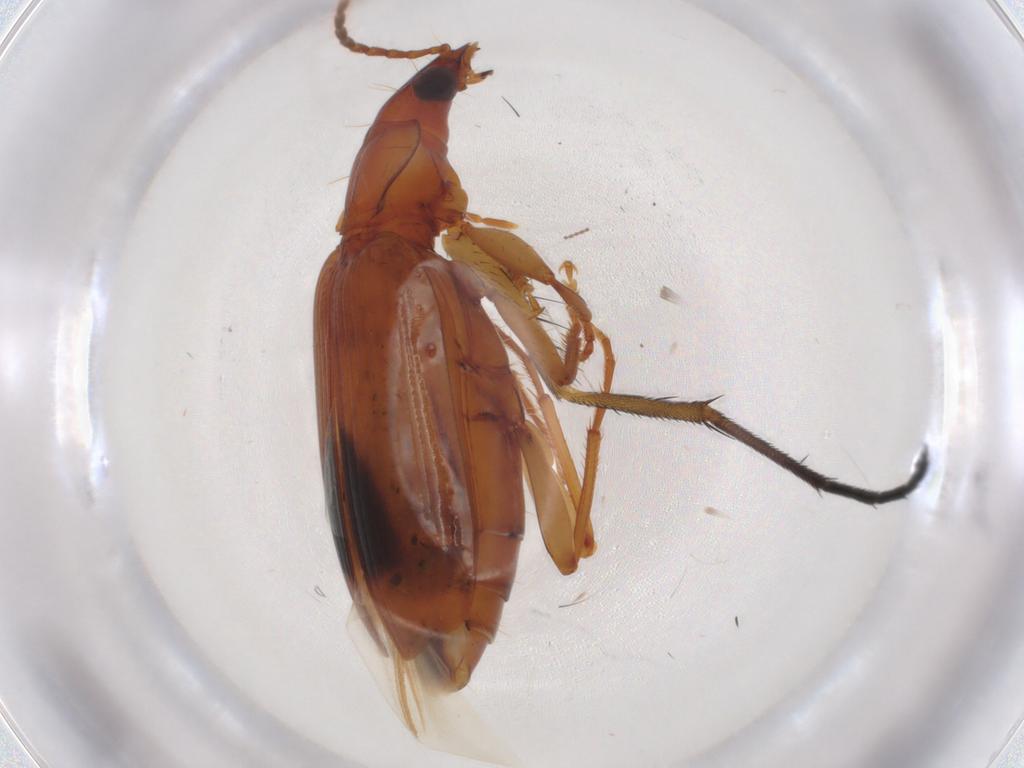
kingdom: Animalia
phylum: Arthropoda
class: Insecta
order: Coleoptera
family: Carabidae
